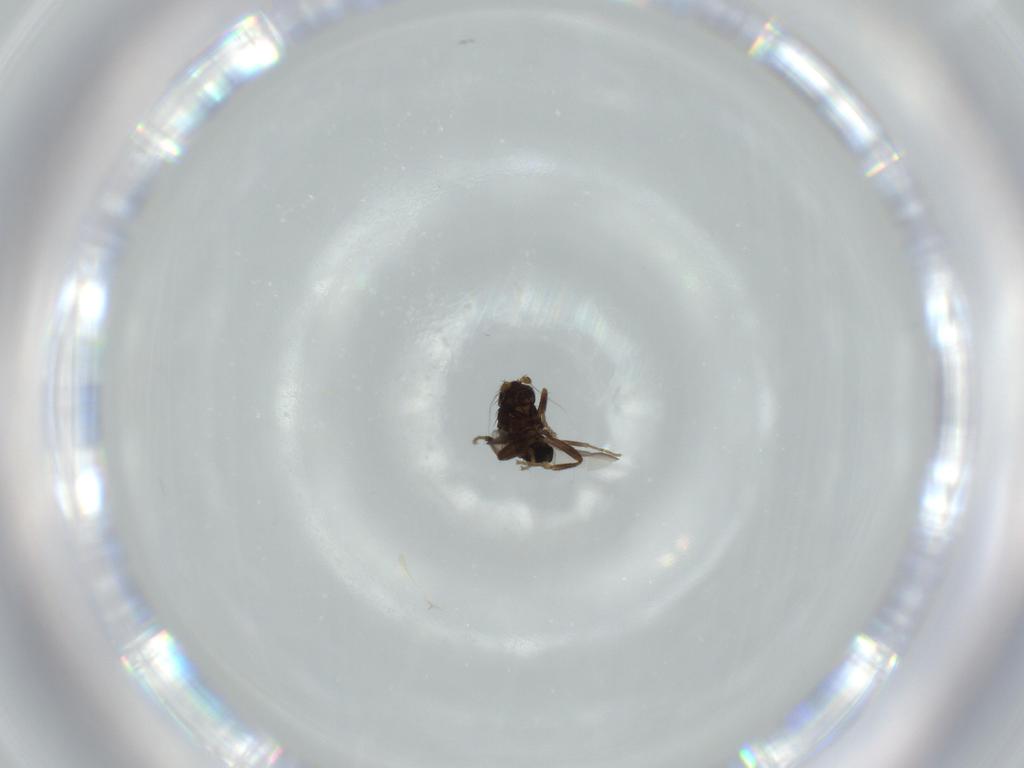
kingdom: Animalia
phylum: Arthropoda
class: Insecta
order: Diptera
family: Sphaeroceridae
